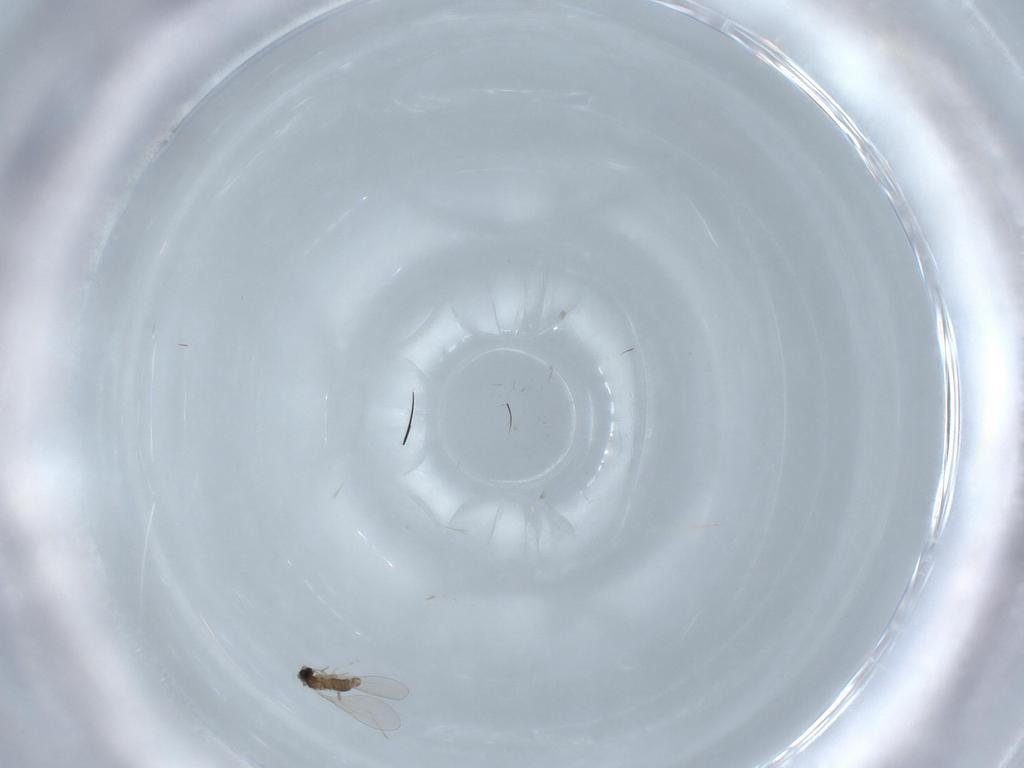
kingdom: Animalia
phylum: Arthropoda
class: Insecta
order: Diptera
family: Cecidomyiidae
